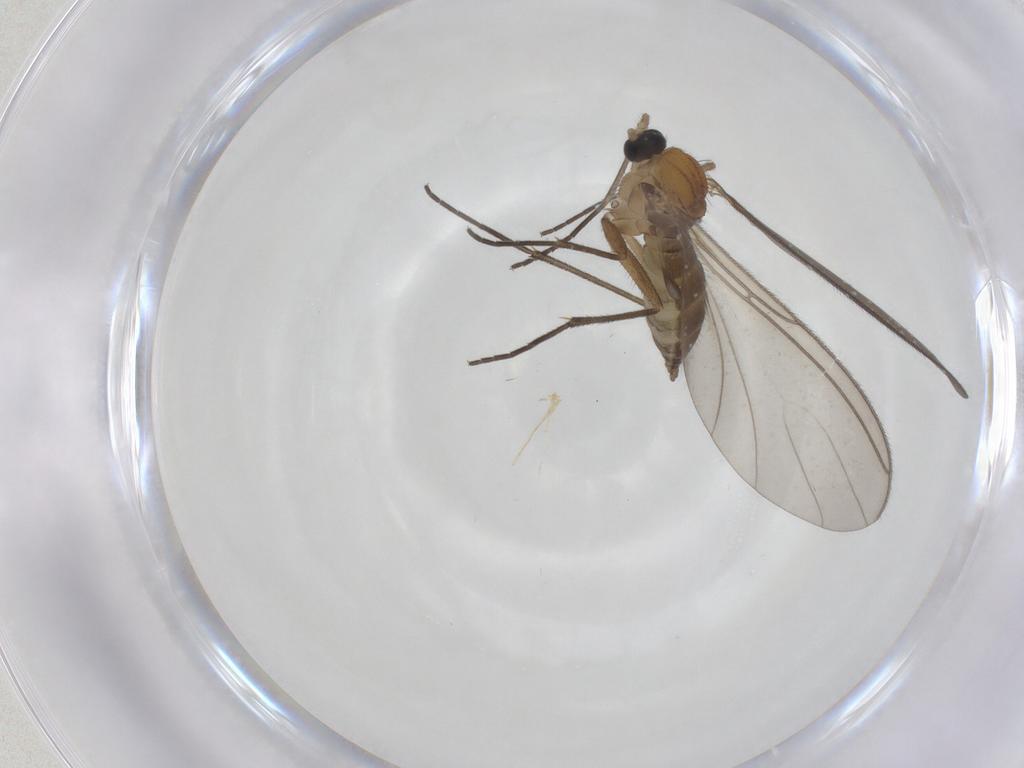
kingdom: Animalia
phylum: Arthropoda
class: Insecta
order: Diptera
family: Sciaridae
